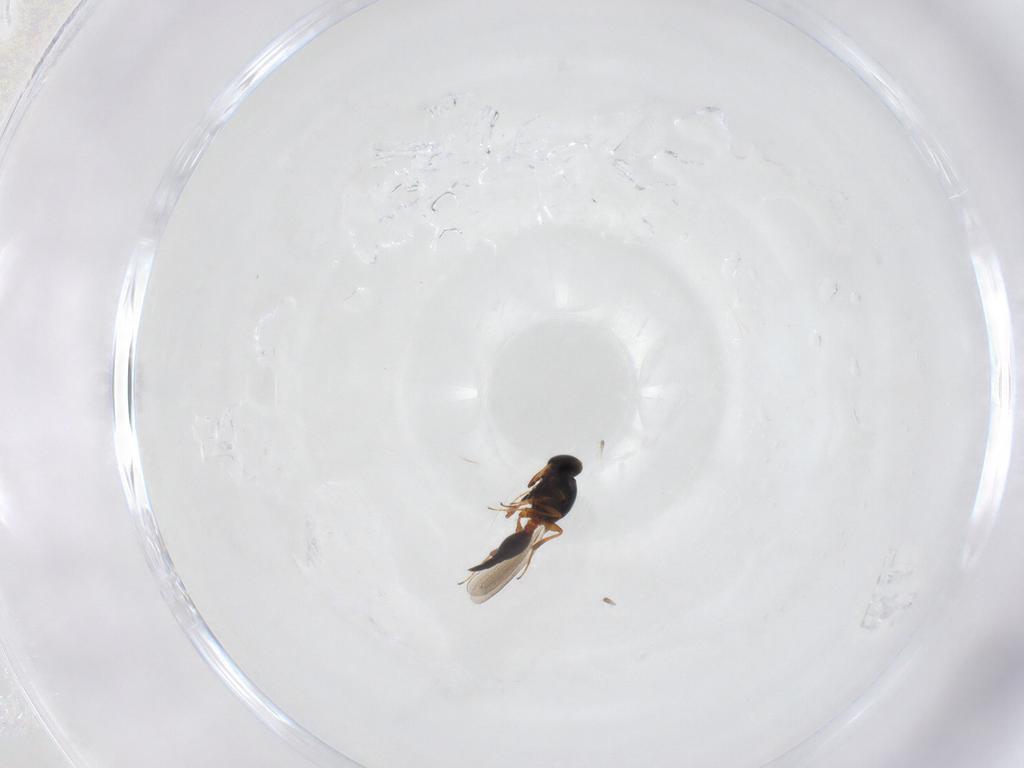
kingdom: Animalia
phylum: Arthropoda
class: Insecta
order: Hymenoptera
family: Platygastridae
